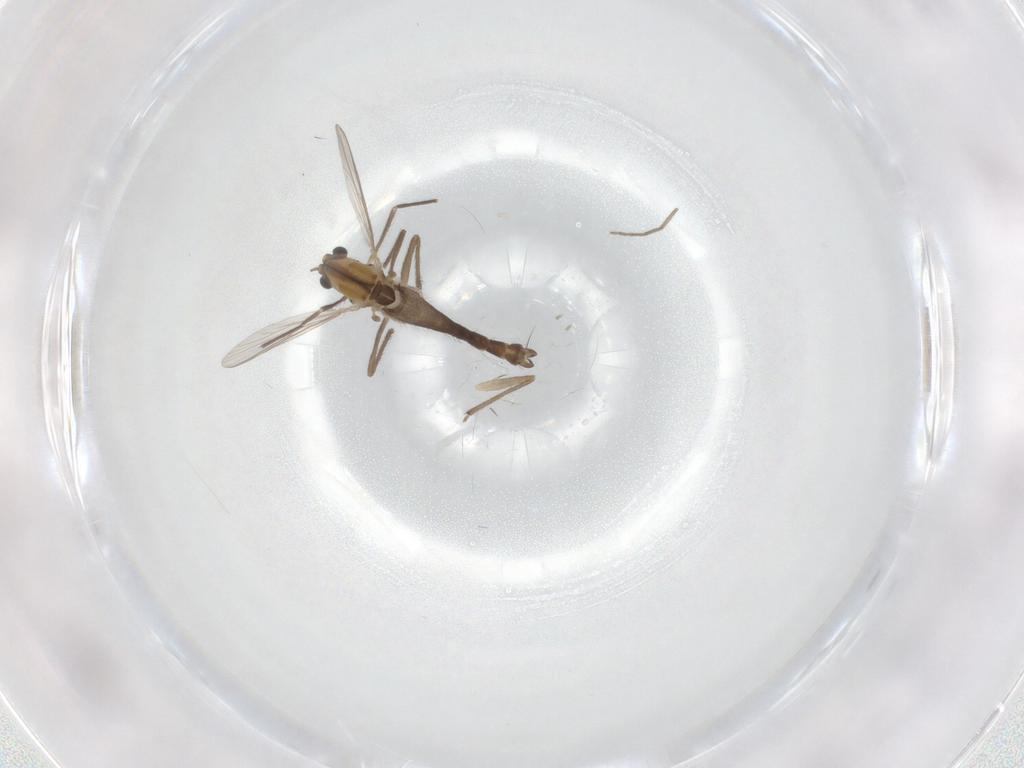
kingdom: Animalia
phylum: Arthropoda
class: Insecta
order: Diptera
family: Chironomidae
